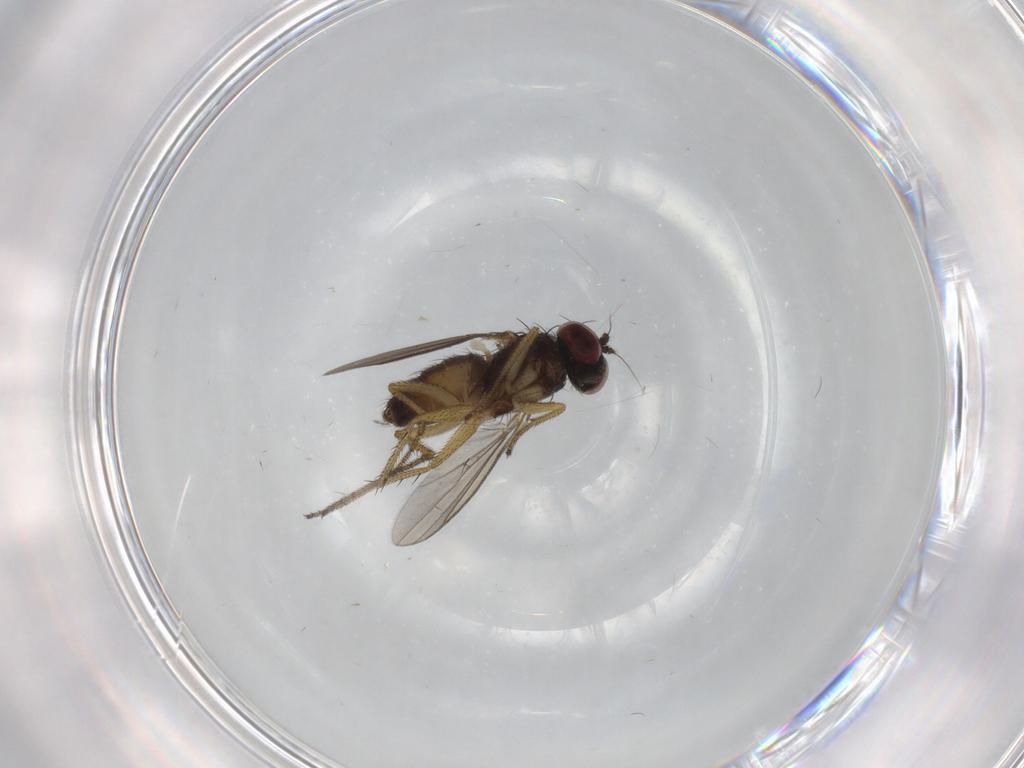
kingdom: Animalia
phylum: Arthropoda
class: Insecta
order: Diptera
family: Dolichopodidae
